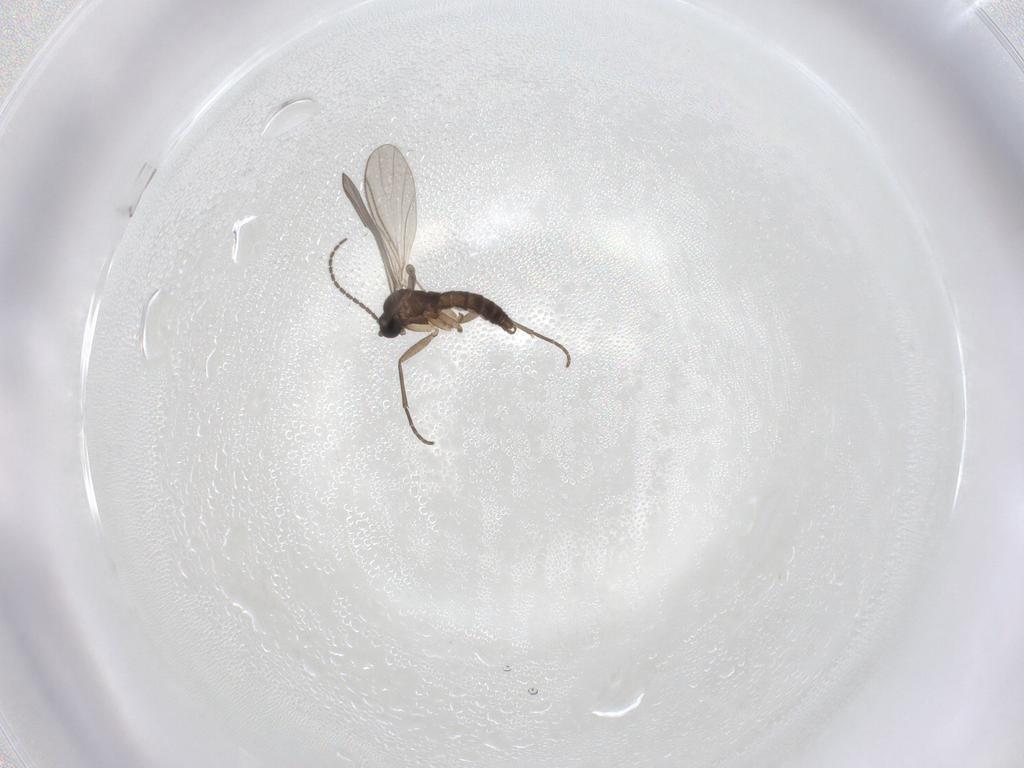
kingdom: Animalia
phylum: Arthropoda
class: Insecta
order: Diptera
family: Sciaridae
